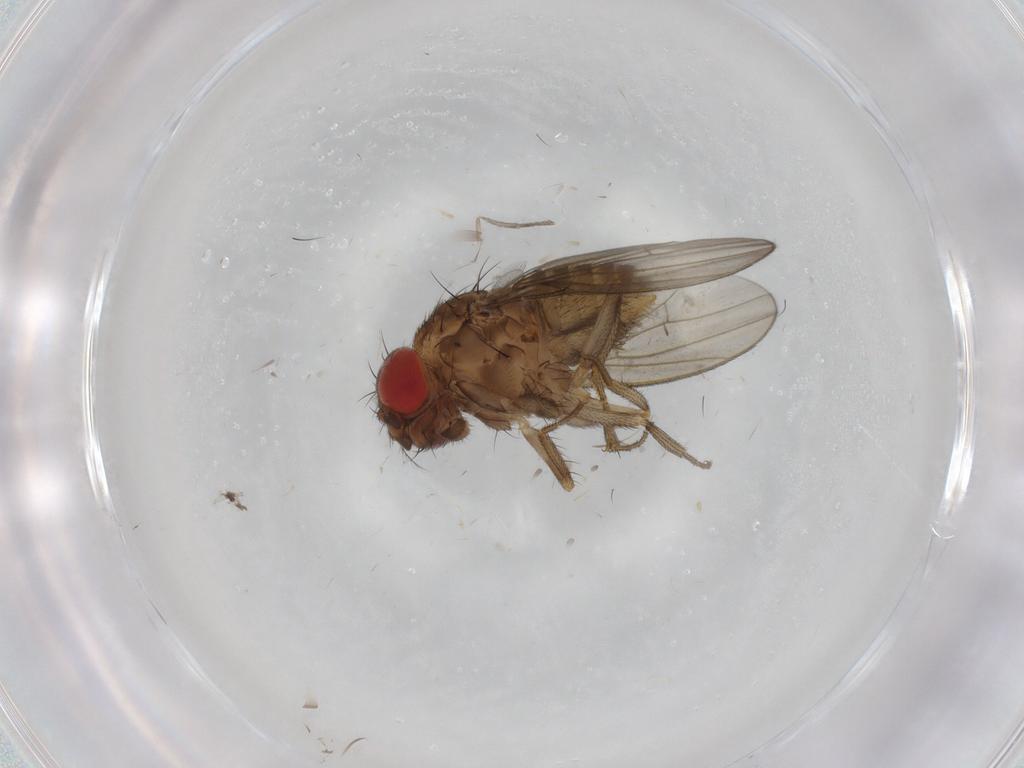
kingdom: Animalia
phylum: Arthropoda
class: Insecta
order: Diptera
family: Drosophilidae
